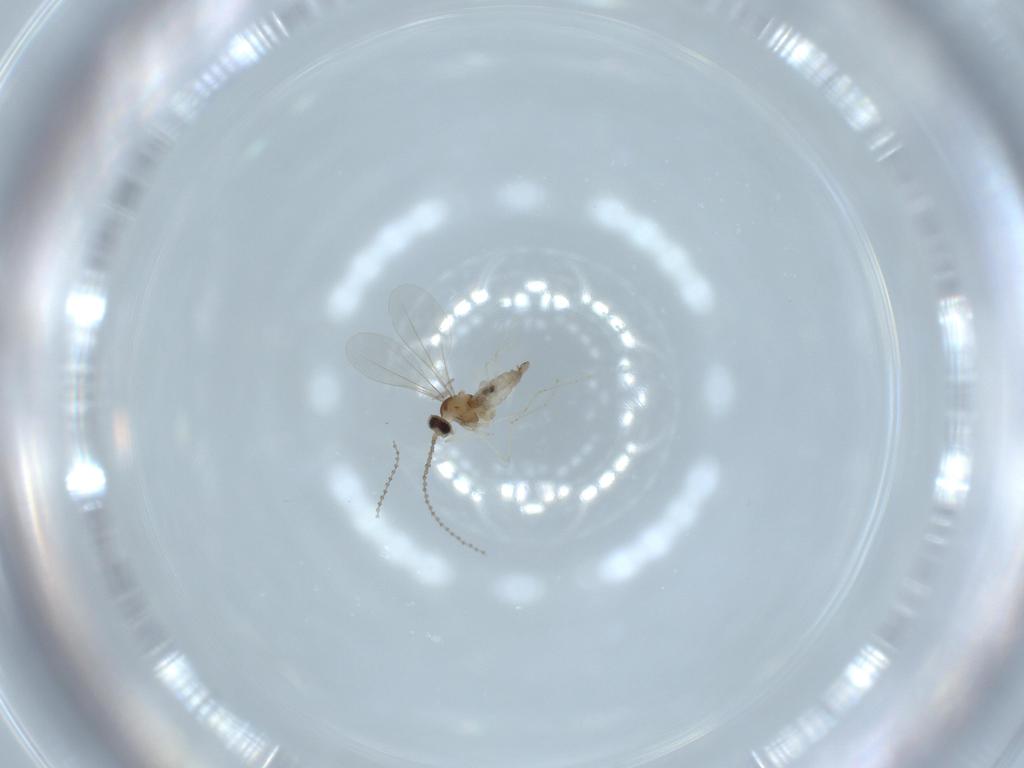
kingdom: Animalia
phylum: Arthropoda
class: Insecta
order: Diptera
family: Cecidomyiidae
